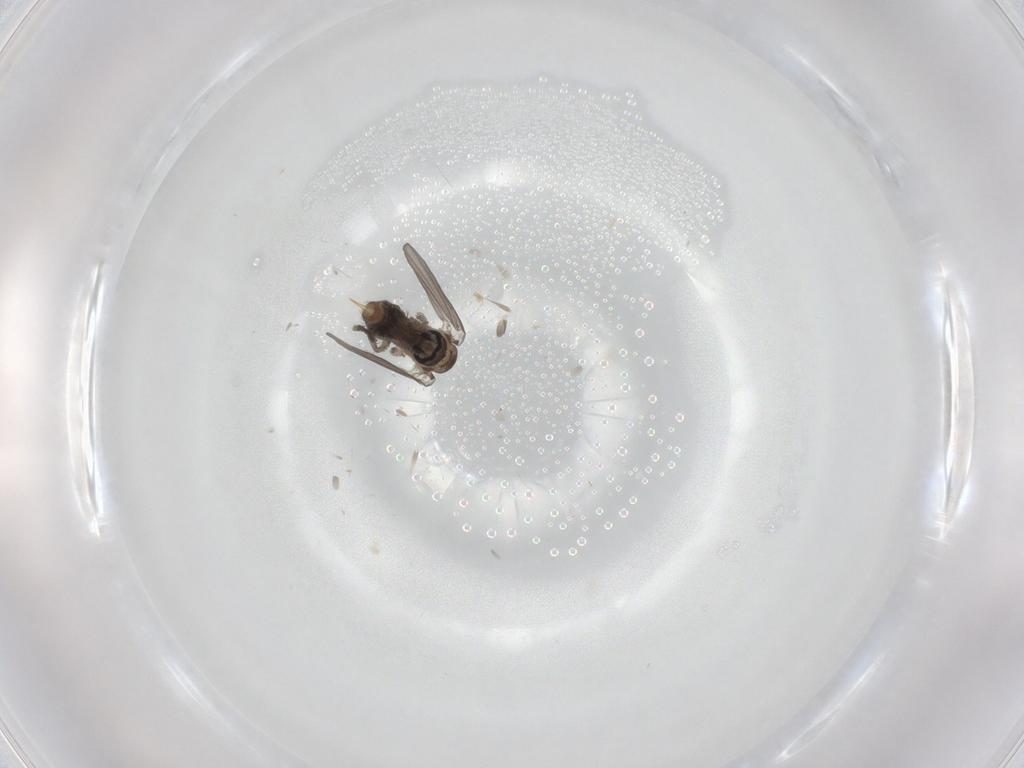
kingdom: Animalia
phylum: Arthropoda
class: Insecta
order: Diptera
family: Psychodidae
